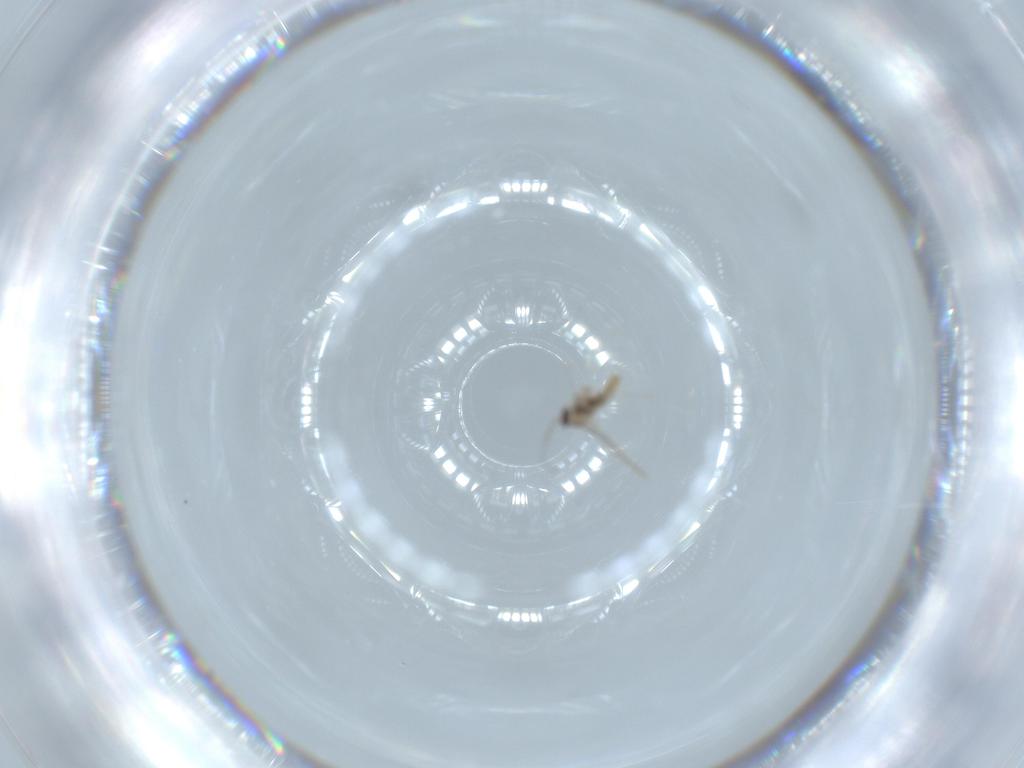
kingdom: Animalia
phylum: Arthropoda
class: Insecta
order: Diptera
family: Cecidomyiidae
